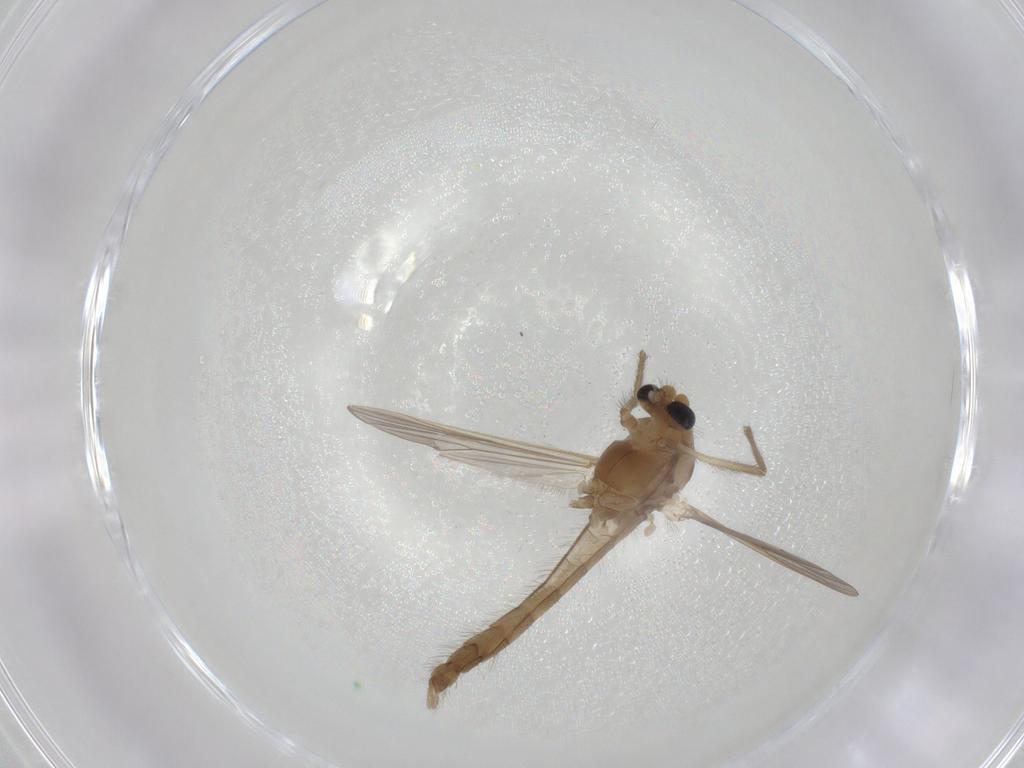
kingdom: Animalia
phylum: Arthropoda
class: Insecta
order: Diptera
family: Chironomidae
